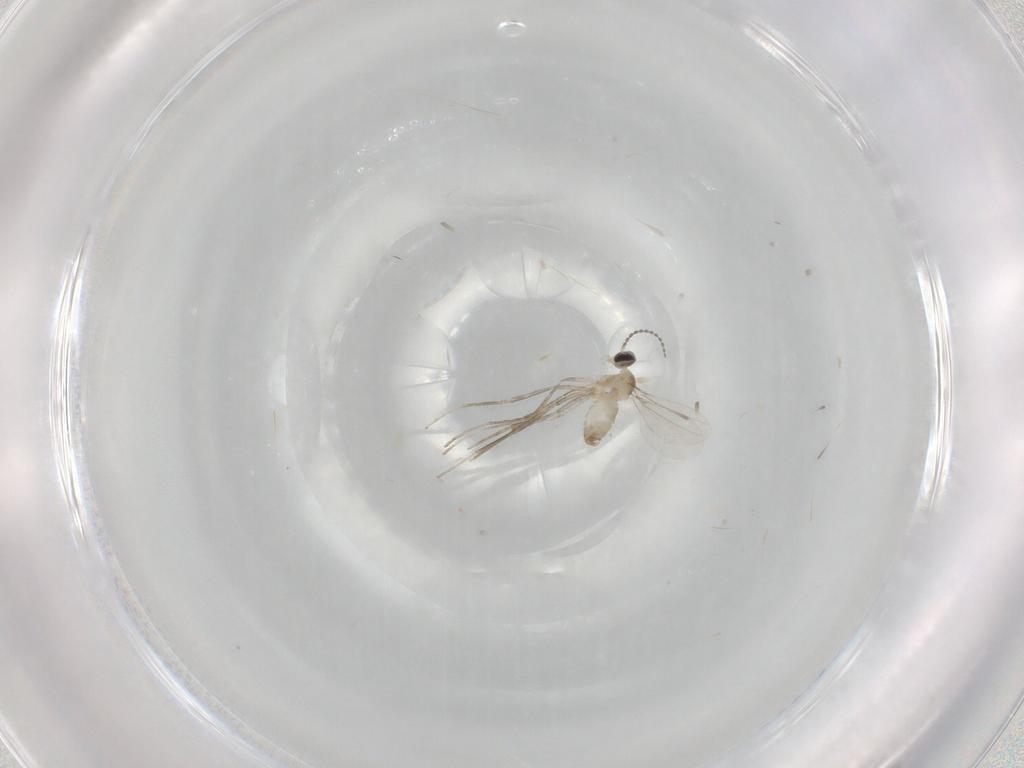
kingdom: Animalia
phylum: Arthropoda
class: Insecta
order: Diptera
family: Cecidomyiidae
